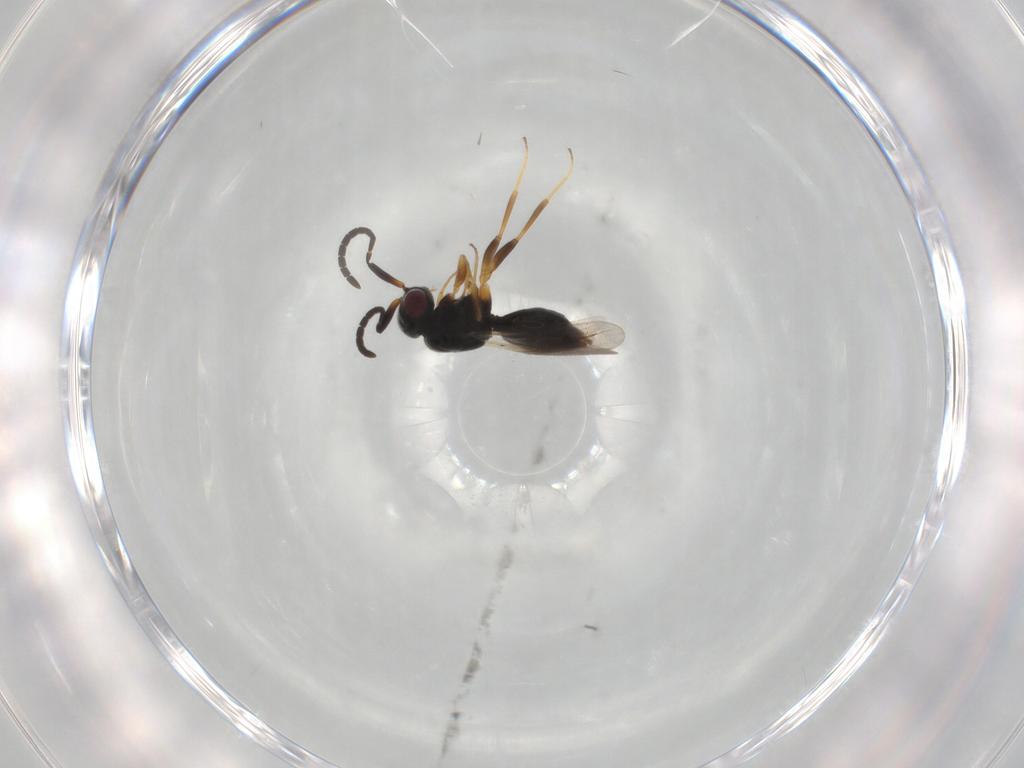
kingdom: Animalia
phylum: Arthropoda
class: Insecta
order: Hymenoptera
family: Megaspilidae
